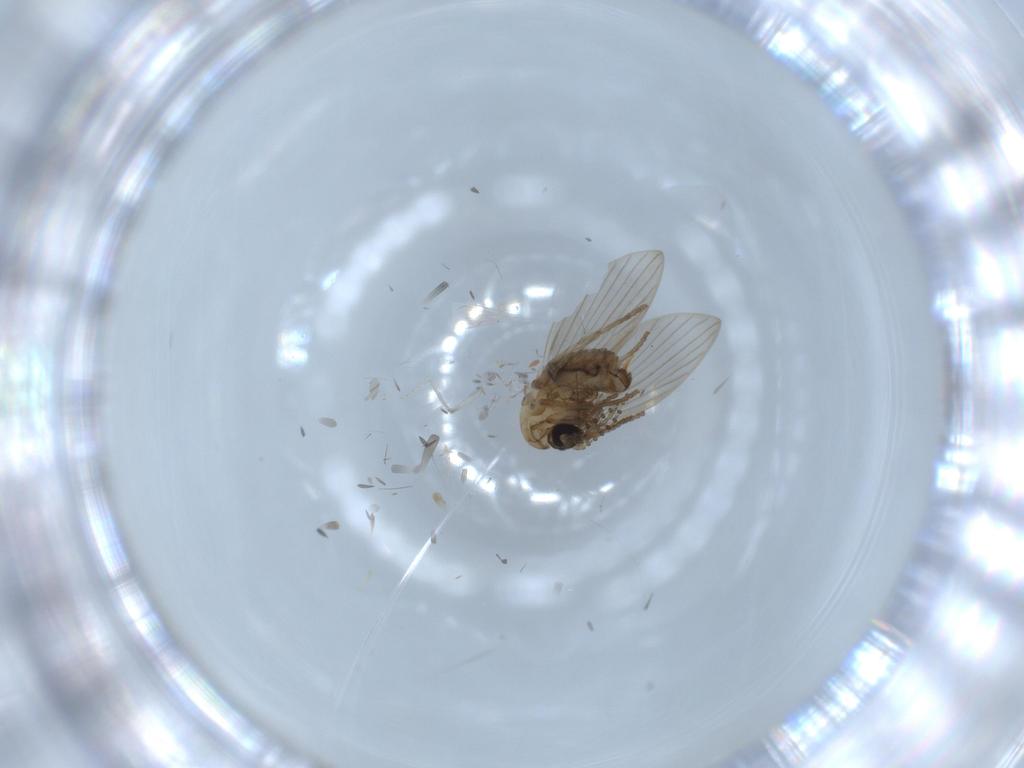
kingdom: Animalia
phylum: Arthropoda
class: Insecta
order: Diptera
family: Psychodidae
